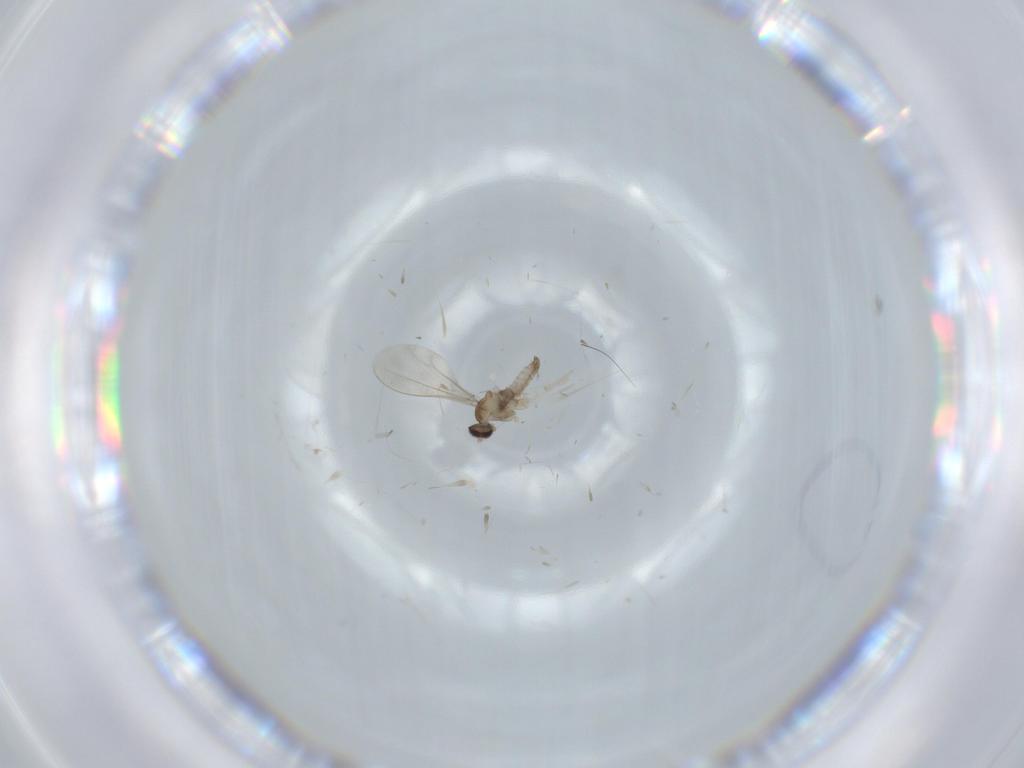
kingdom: Animalia
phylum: Arthropoda
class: Insecta
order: Diptera
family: Cecidomyiidae
